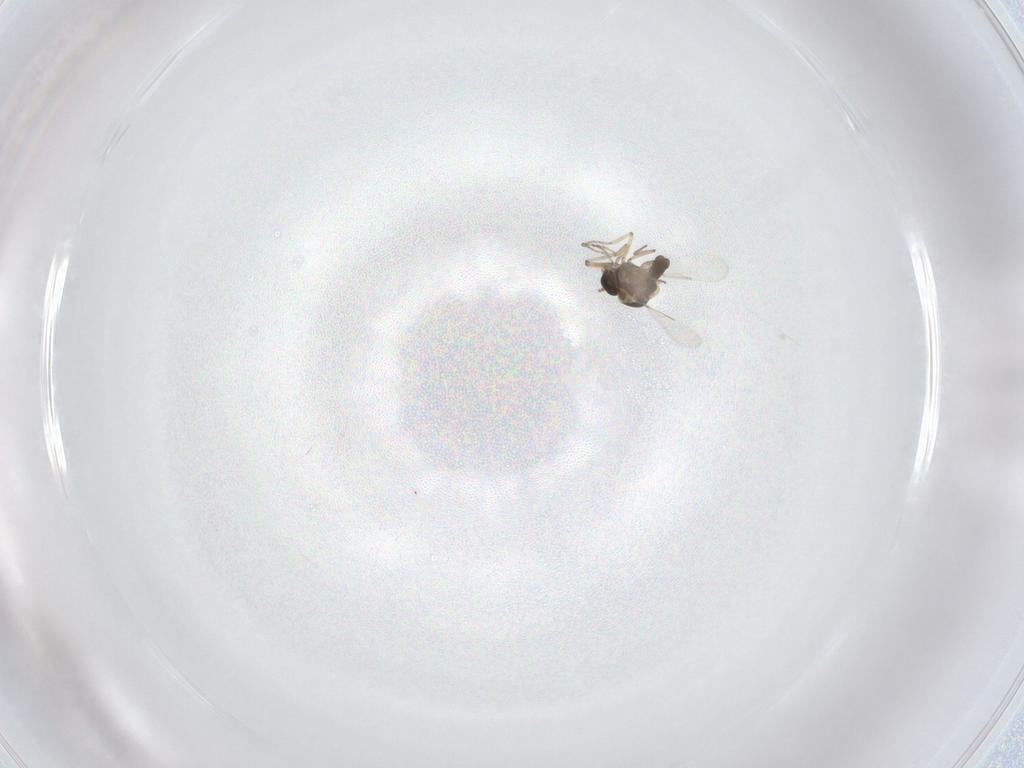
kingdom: Animalia
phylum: Arthropoda
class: Insecta
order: Diptera
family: Ceratopogonidae
